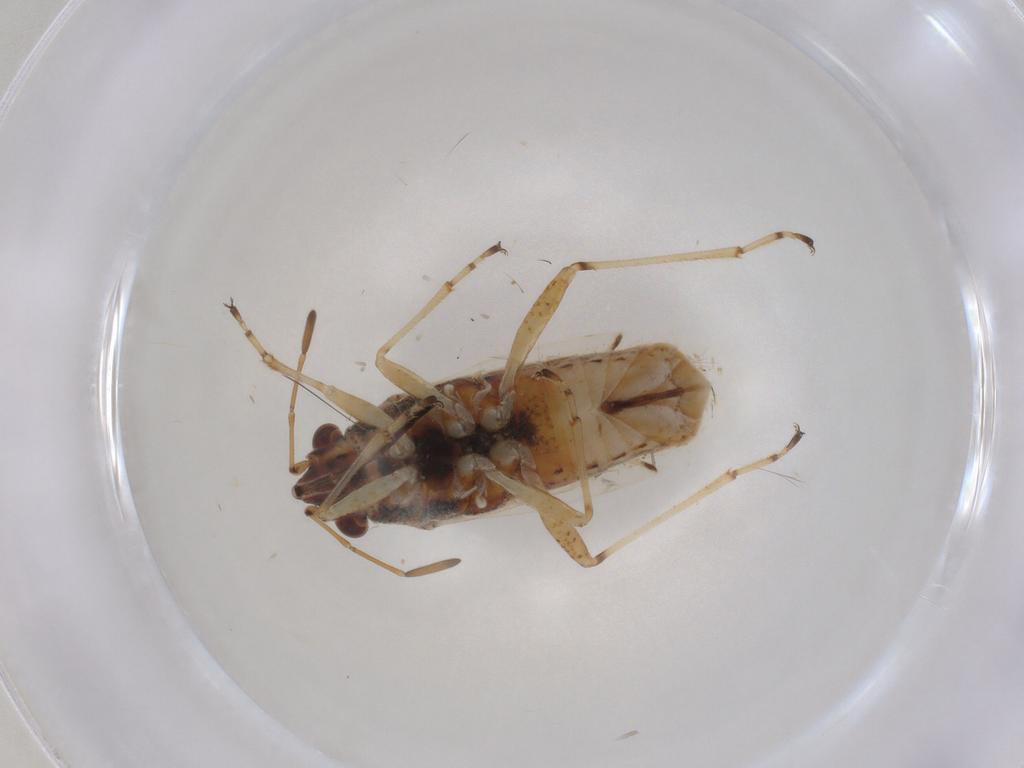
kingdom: Animalia
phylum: Arthropoda
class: Insecta
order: Hemiptera
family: Lygaeidae
